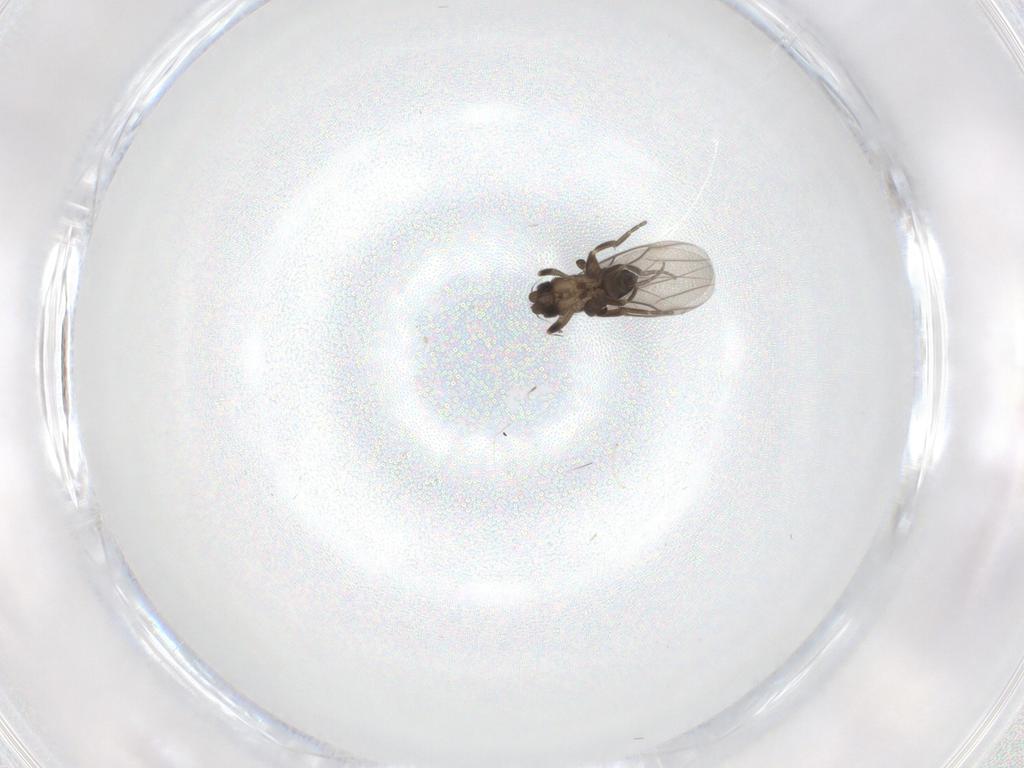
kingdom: Animalia
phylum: Arthropoda
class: Insecta
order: Diptera
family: Phoridae
